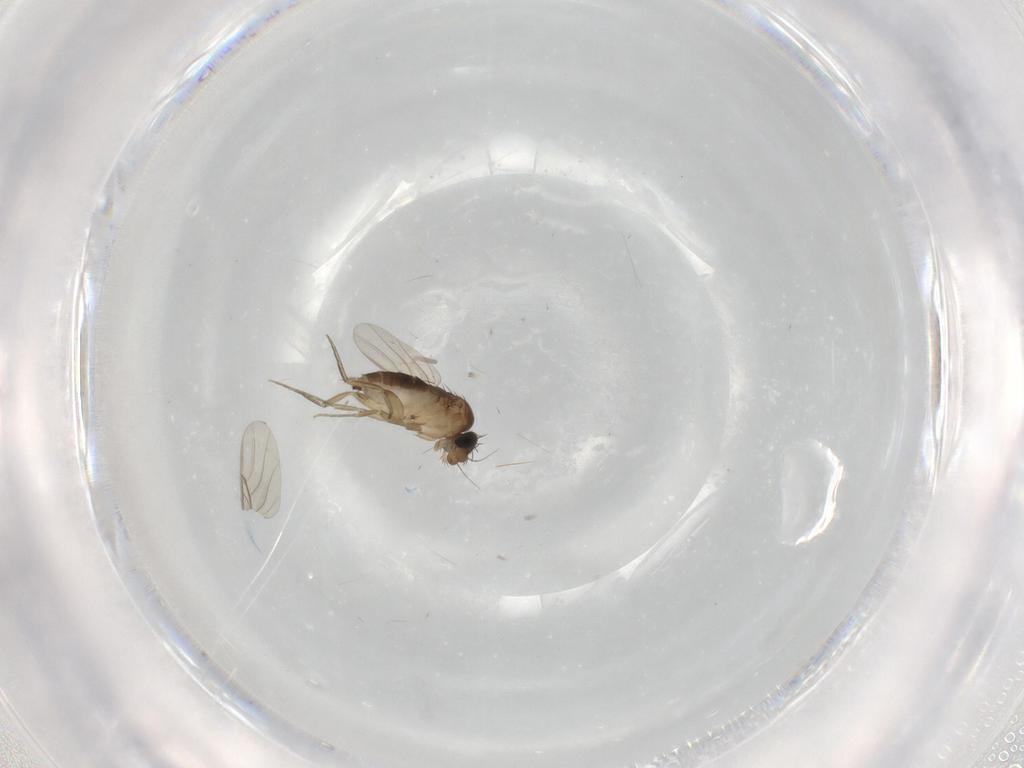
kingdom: Animalia
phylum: Arthropoda
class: Insecta
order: Diptera
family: Phoridae
